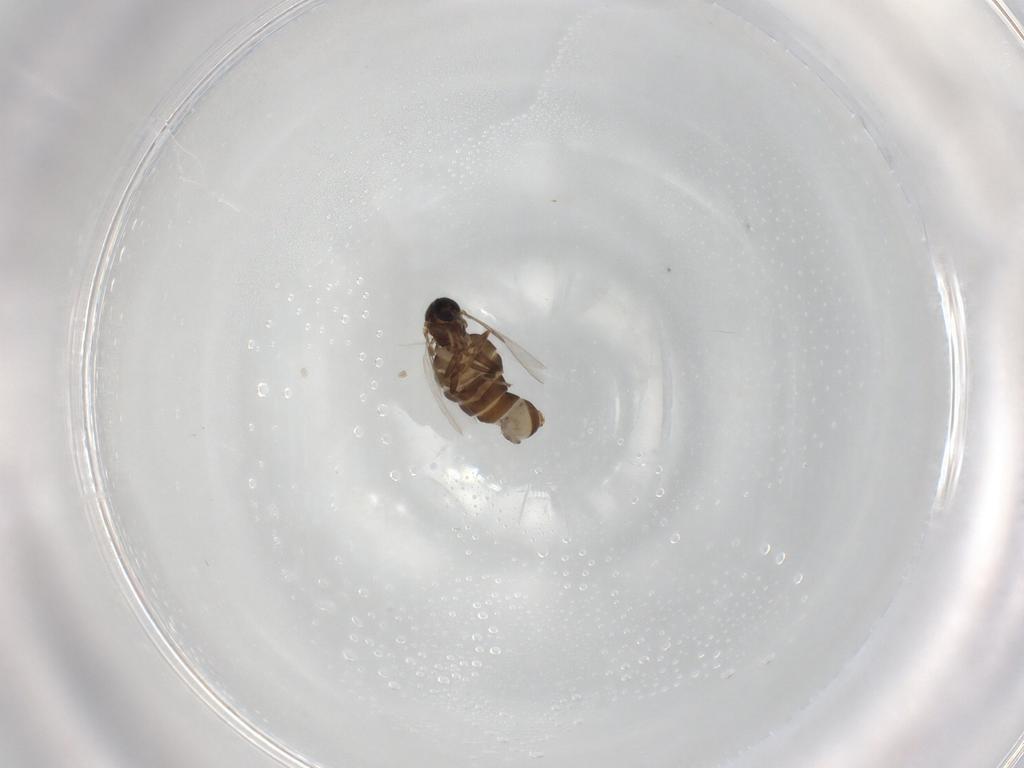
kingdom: Animalia
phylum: Arthropoda
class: Insecta
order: Diptera
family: Scatopsidae
